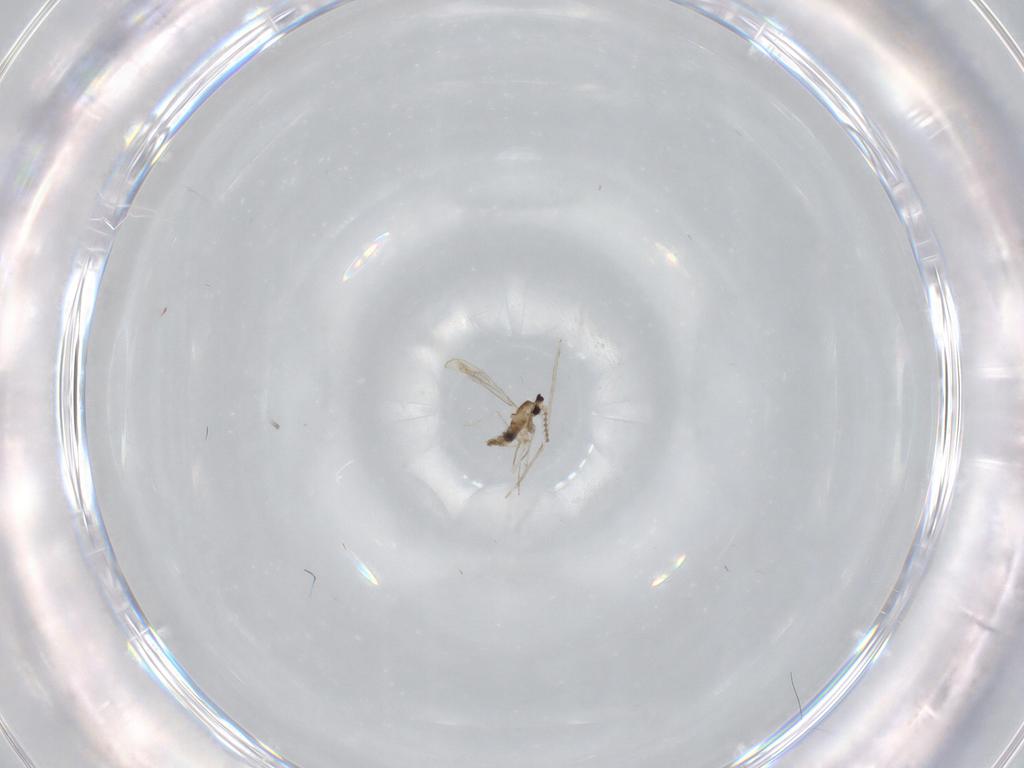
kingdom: Animalia
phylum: Arthropoda
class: Insecta
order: Diptera
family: Cecidomyiidae
